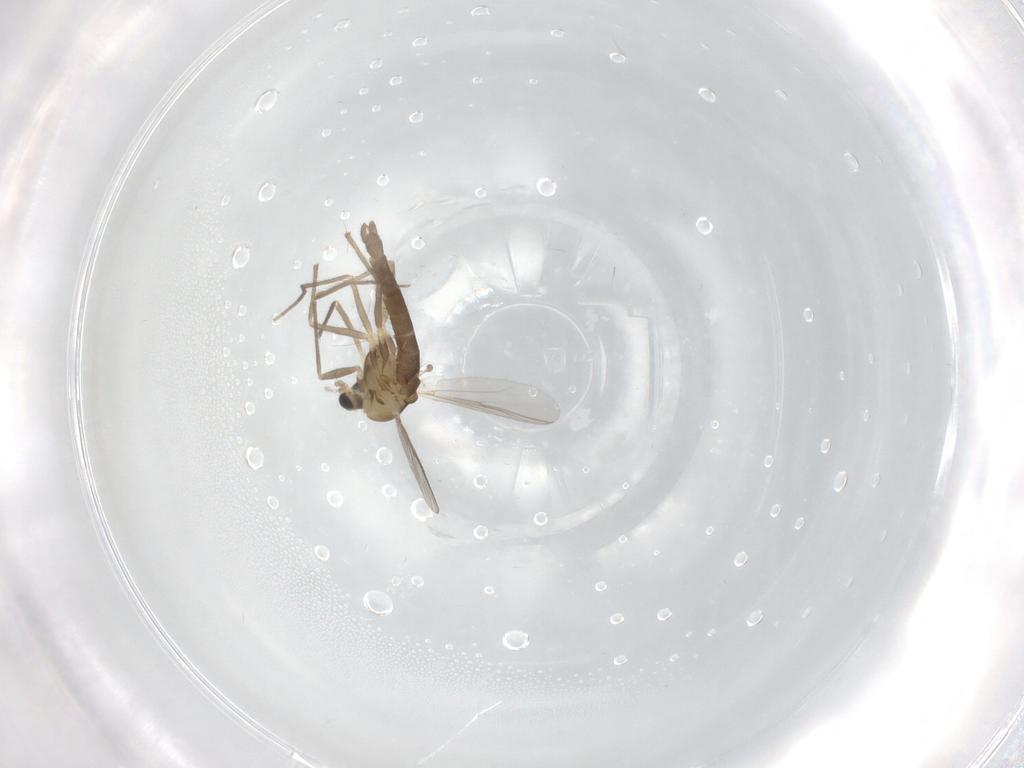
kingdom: Animalia
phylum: Arthropoda
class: Insecta
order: Diptera
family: Chironomidae
